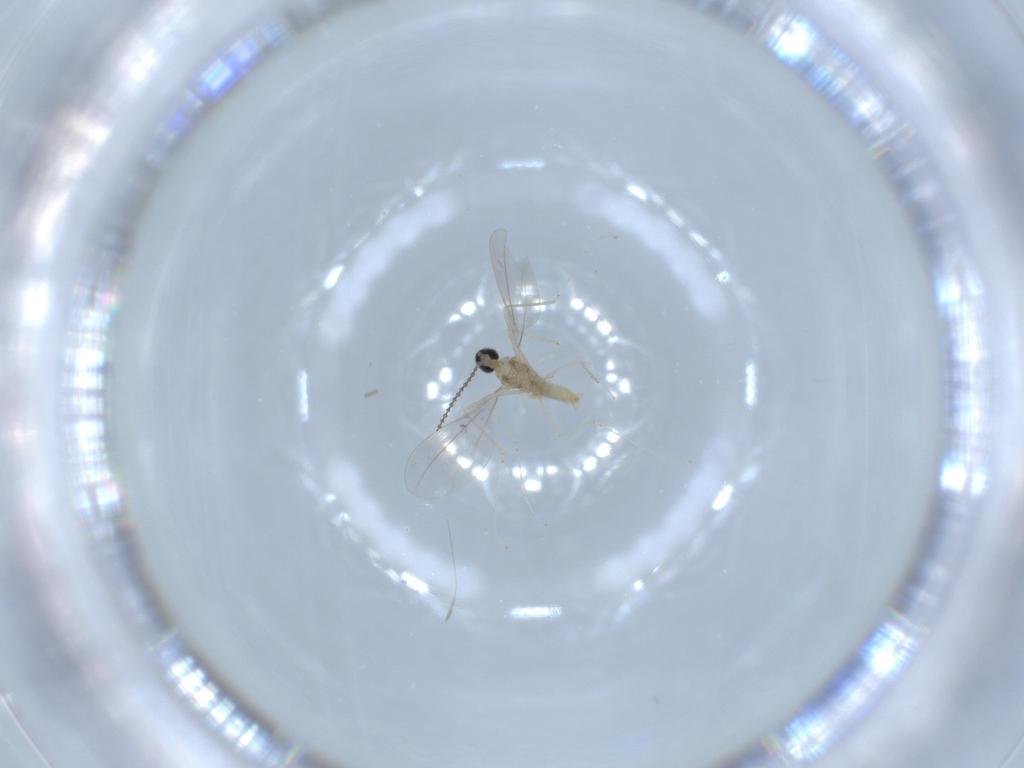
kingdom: Animalia
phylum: Arthropoda
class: Insecta
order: Diptera
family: Cecidomyiidae
